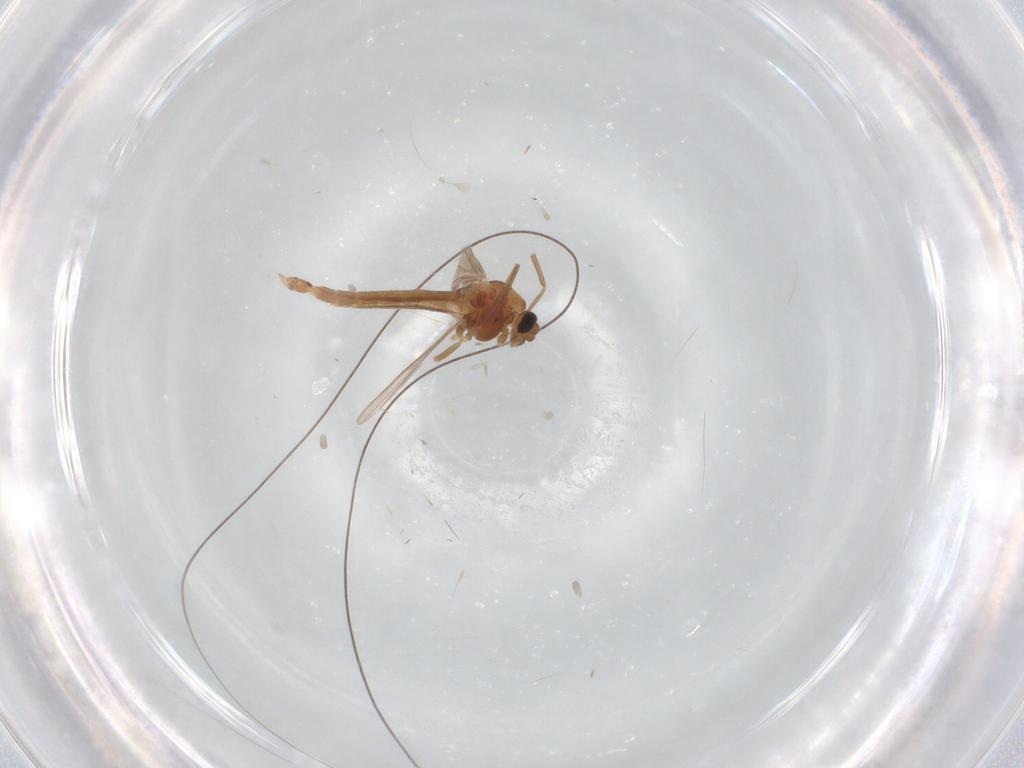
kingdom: Animalia
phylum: Arthropoda
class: Insecta
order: Diptera
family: Chironomidae
